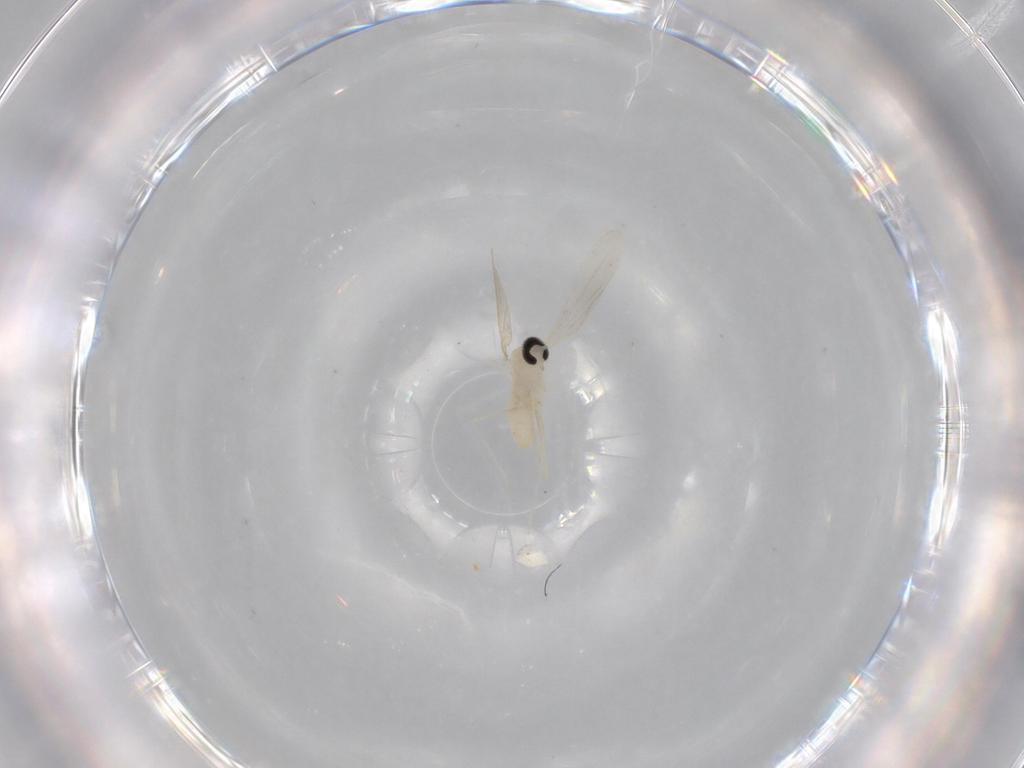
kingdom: Animalia
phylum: Arthropoda
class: Insecta
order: Diptera
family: Cecidomyiidae
